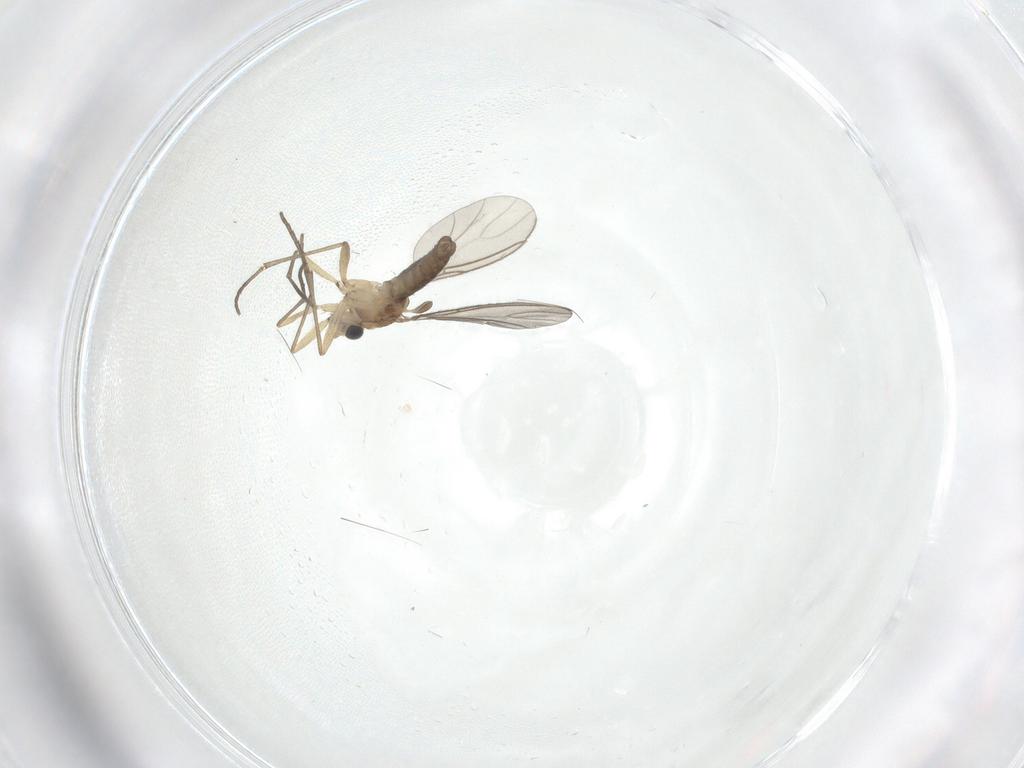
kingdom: Animalia
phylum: Arthropoda
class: Insecta
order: Diptera
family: Sciaridae
